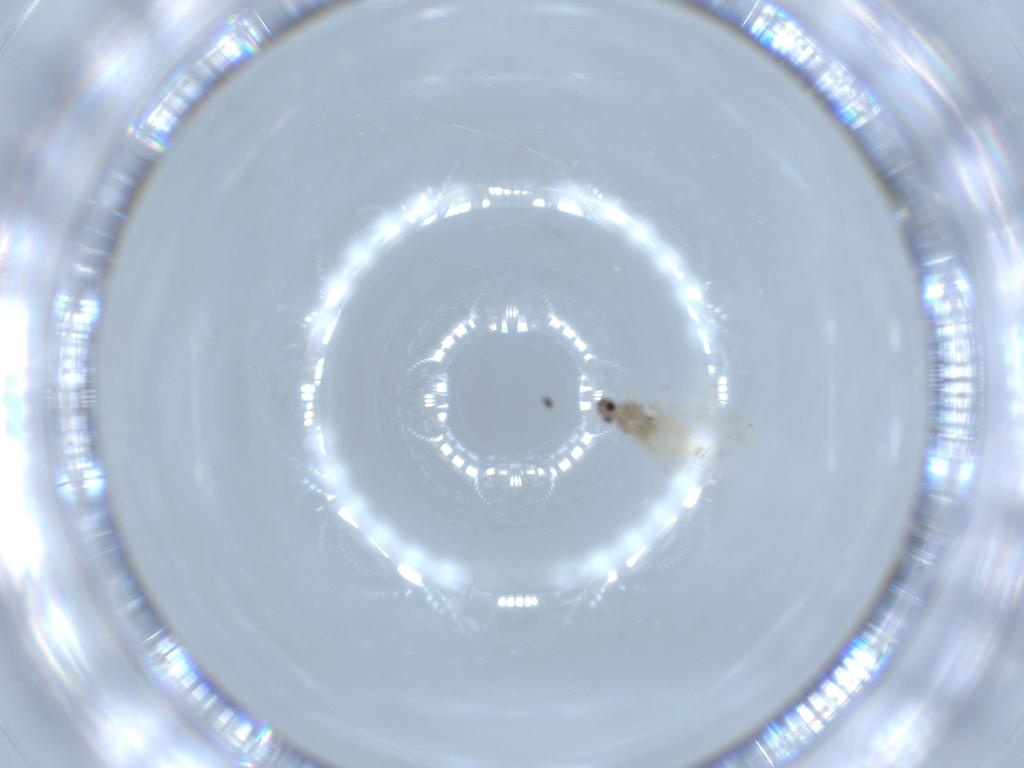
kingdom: Animalia
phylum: Arthropoda
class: Insecta
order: Diptera
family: Cecidomyiidae
